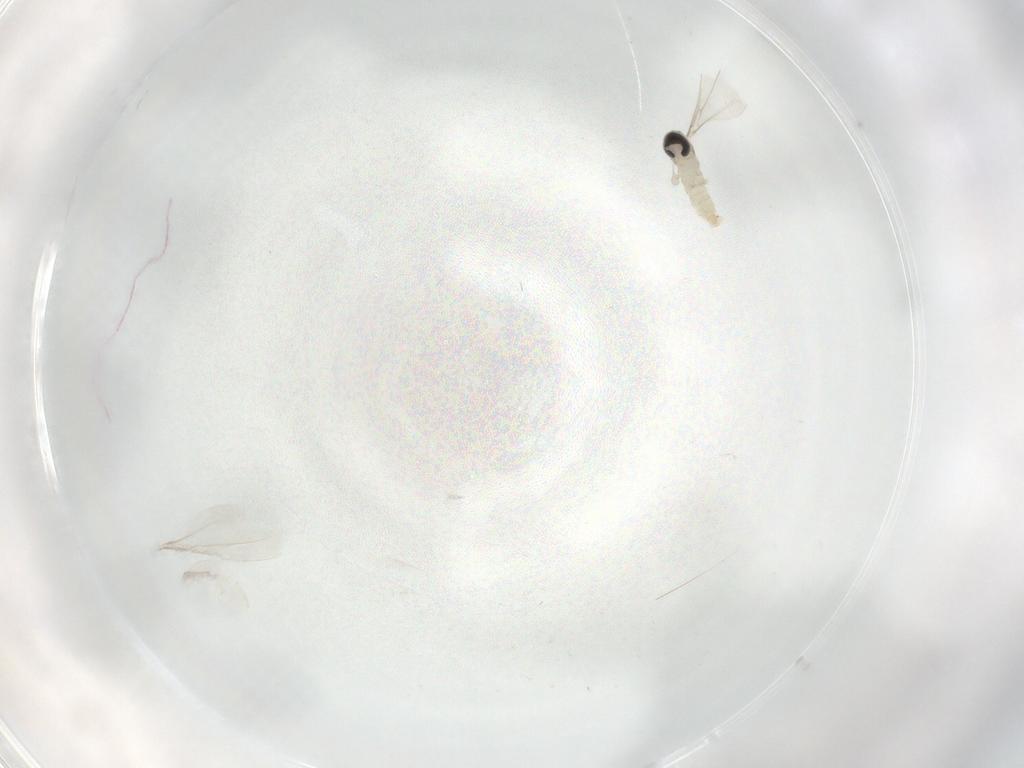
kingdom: Animalia
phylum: Arthropoda
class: Insecta
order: Diptera
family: Cecidomyiidae
